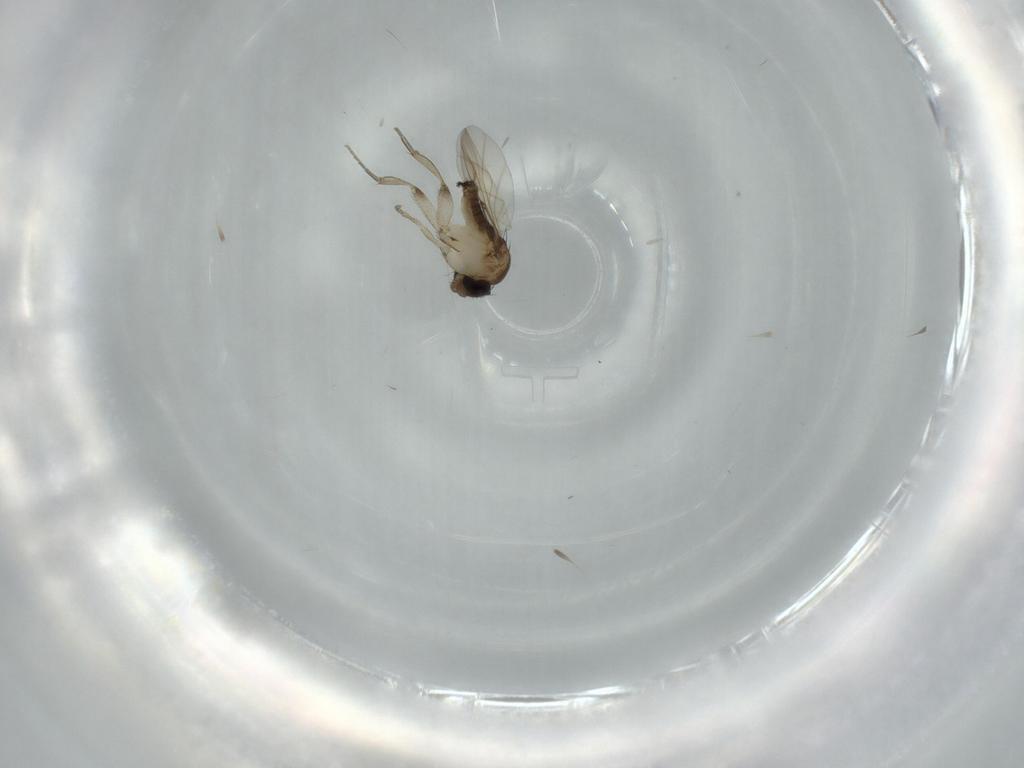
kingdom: Animalia
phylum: Arthropoda
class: Insecta
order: Diptera
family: Phoridae
